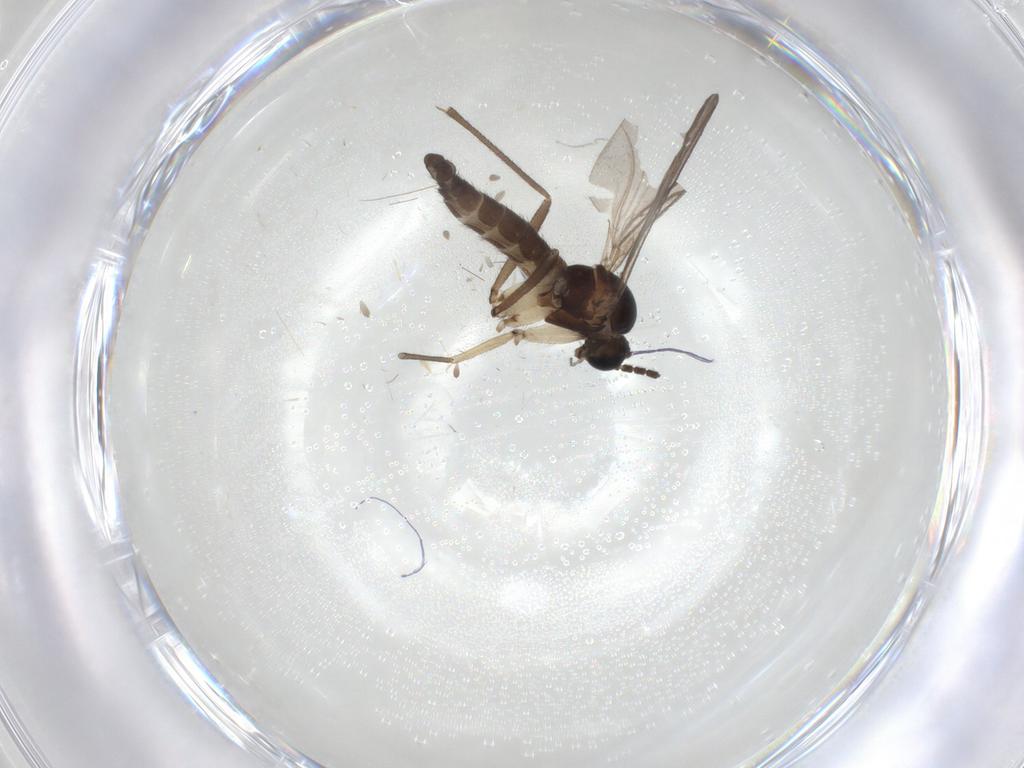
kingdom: Animalia
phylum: Arthropoda
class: Insecta
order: Diptera
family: Sciaridae
